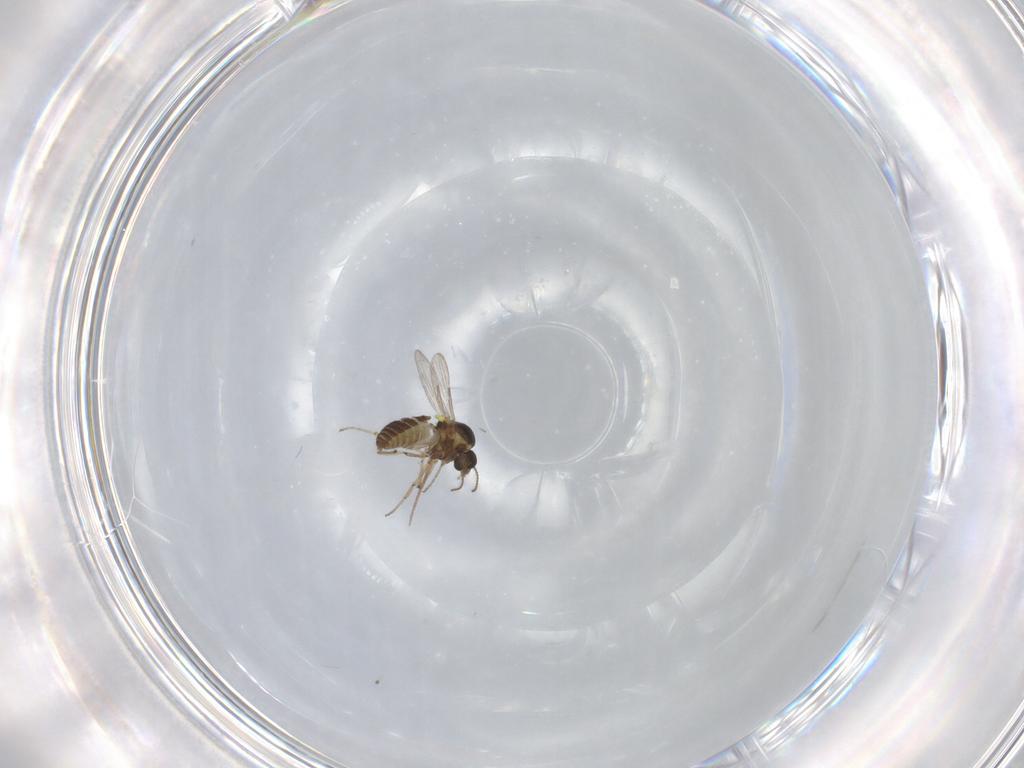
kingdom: Animalia
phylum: Arthropoda
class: Insecta
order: Diptera
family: Ceratopogonidae
